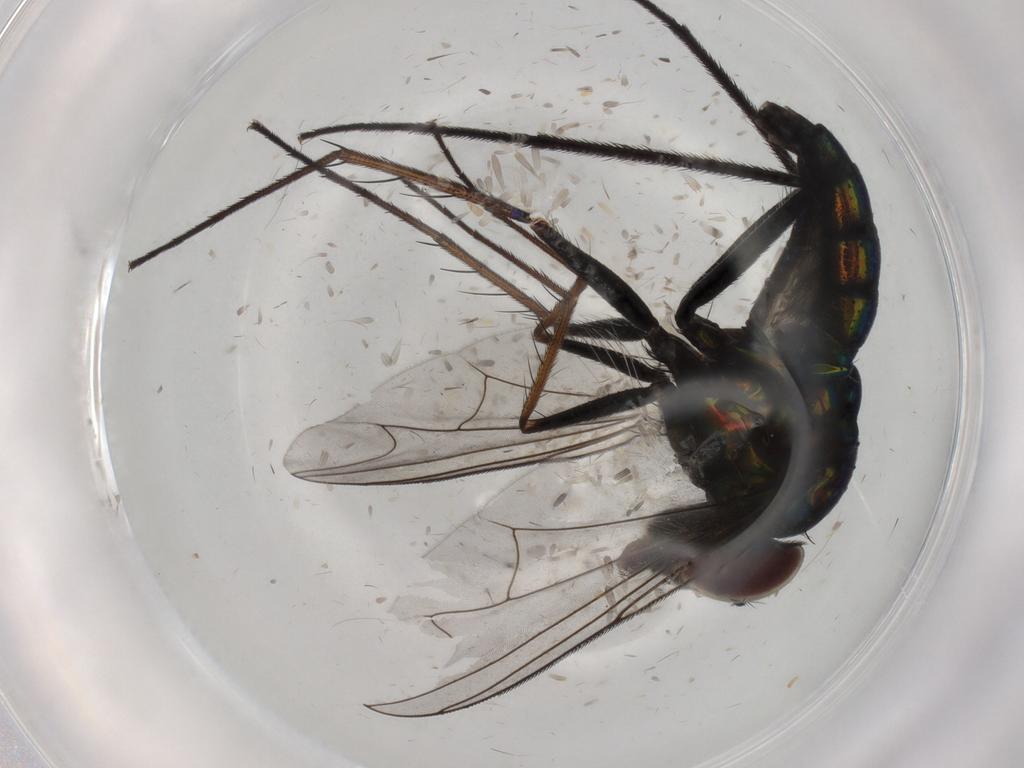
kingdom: Animalia
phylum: Arthropoda
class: Insecta
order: Diptera
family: Dolichopodidae
